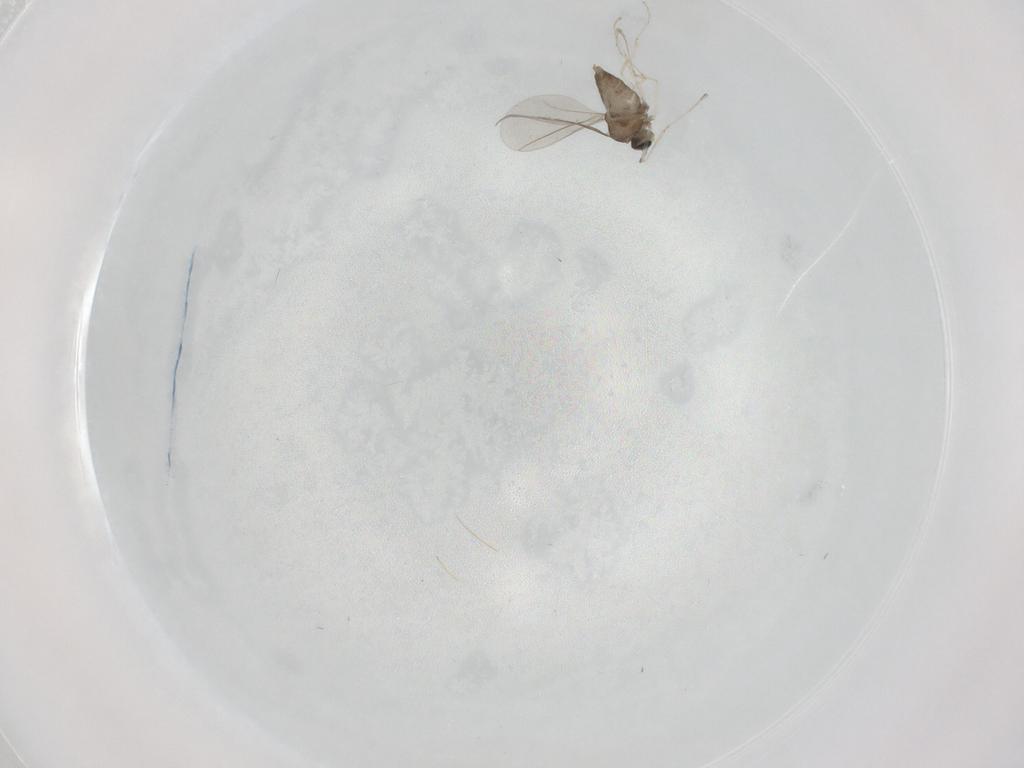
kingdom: Animalia
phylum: Arthropoda
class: Insecta
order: Diptera
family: Cecidomyiidae
